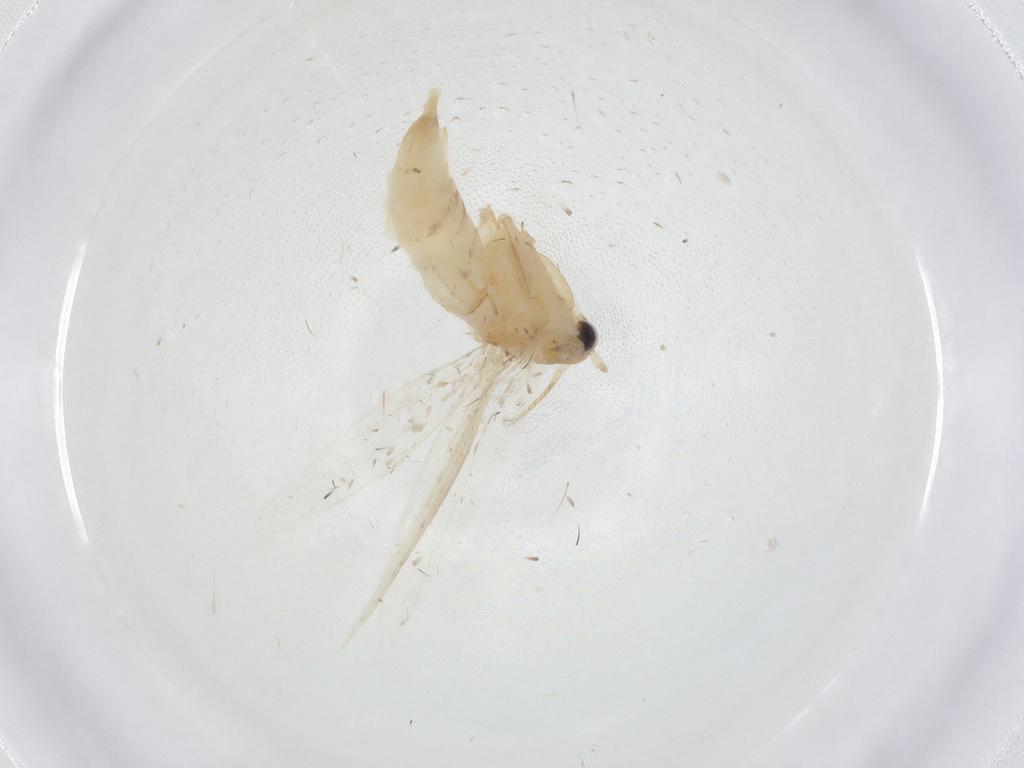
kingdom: Animalia
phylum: Arthropoda
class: Insecta
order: Lepidoptera
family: Tineidae
